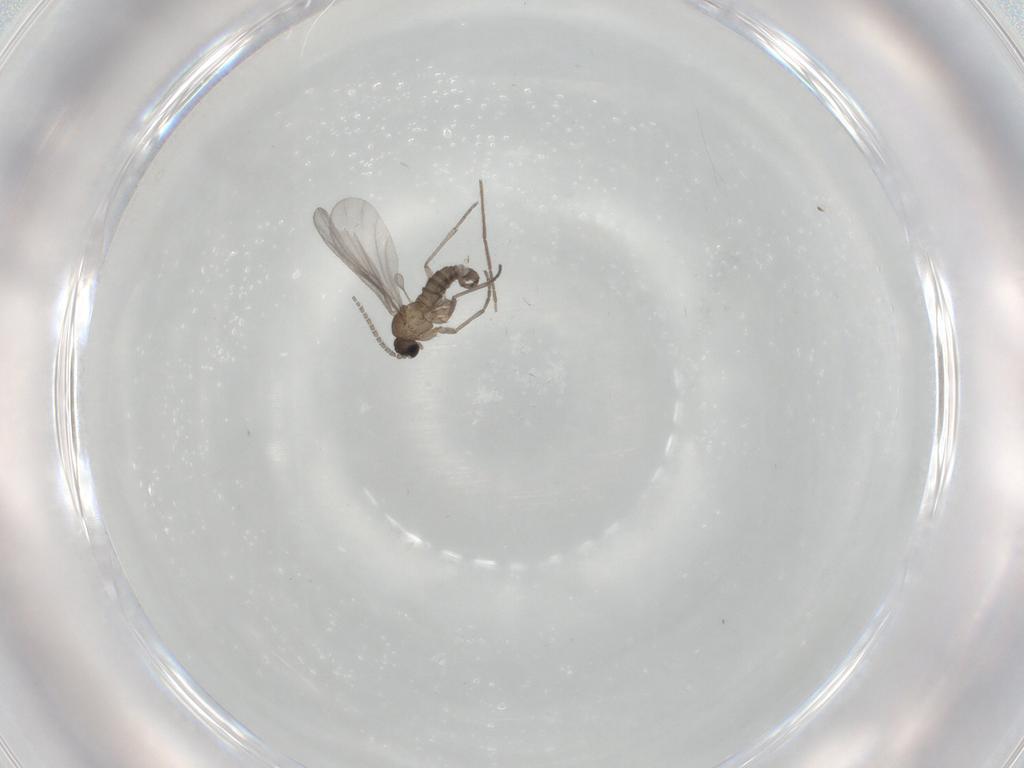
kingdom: Animalia
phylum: Arthropoda
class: Insecta
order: Diptera
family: Sciaridae
